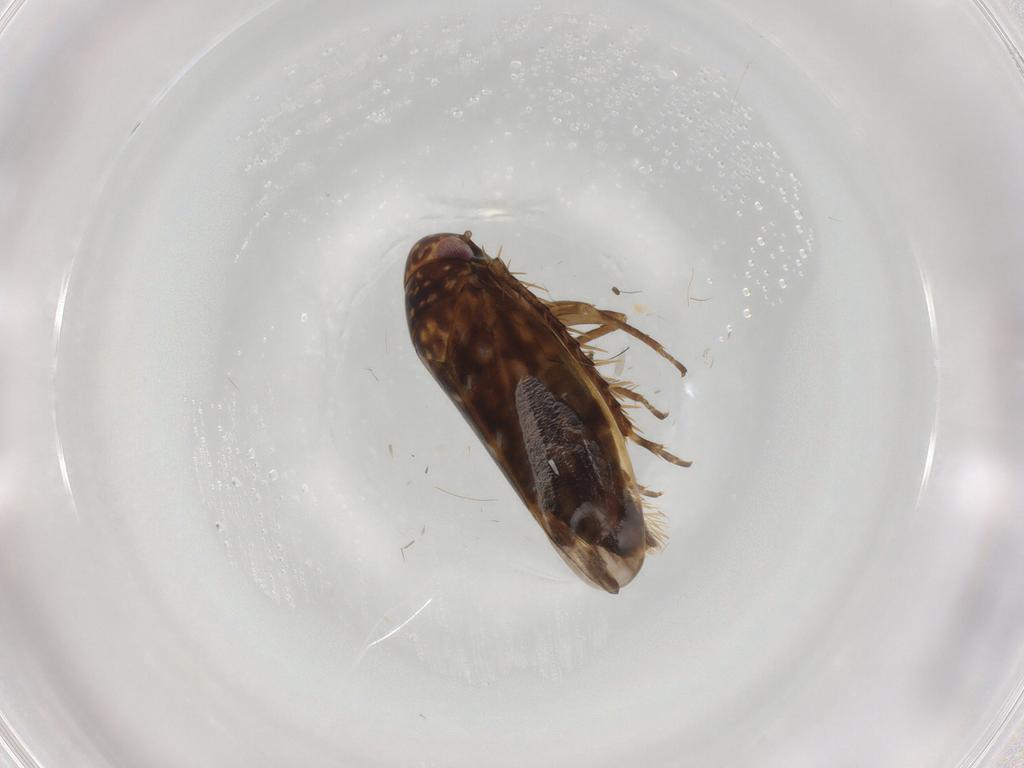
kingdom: Animalia
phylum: Arthropoda
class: Insecta
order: Hemiptera
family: Cicadellidae
